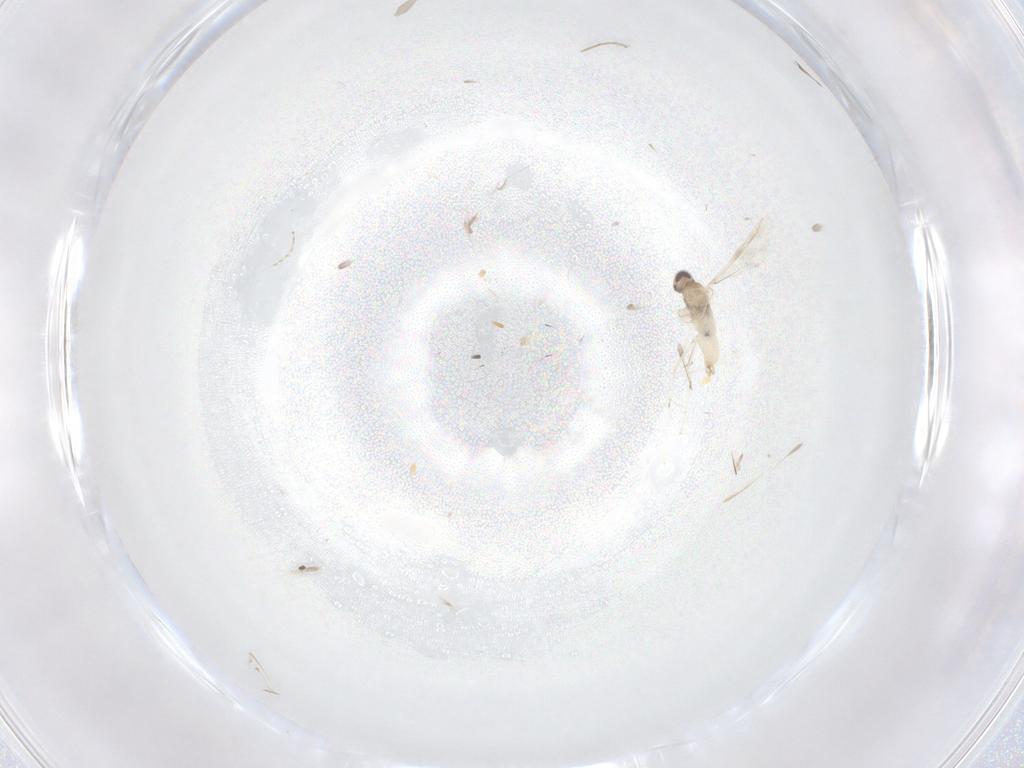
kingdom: Animalia
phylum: Arthropoda
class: Insecta
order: Diptera
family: Chironomidae
